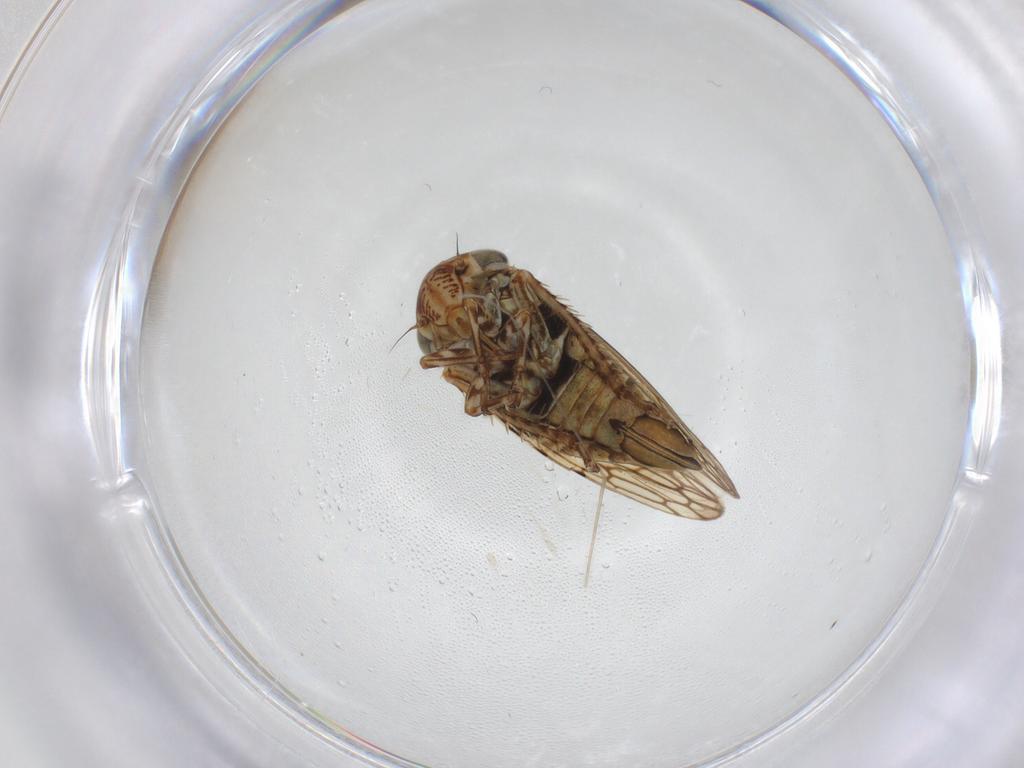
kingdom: Animalia
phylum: Arthropoda
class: Insecta
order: Hemiptera
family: Cicadellidae
